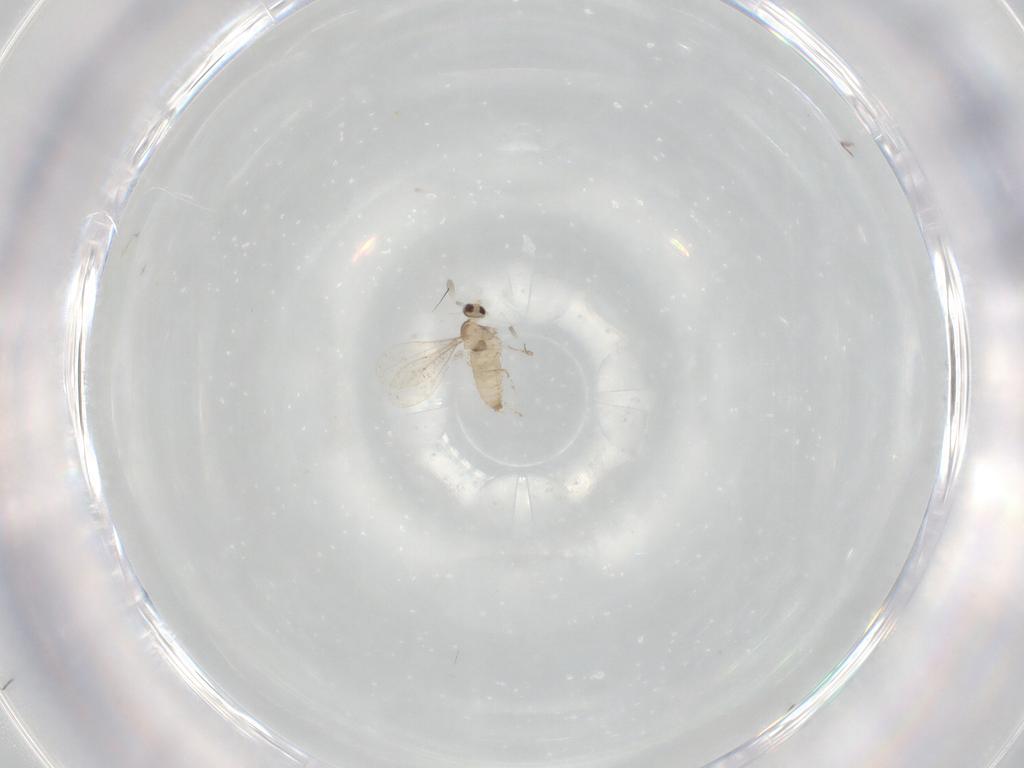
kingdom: Animalia
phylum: Arthropoda
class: Insecta
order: Diptera
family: Cecidomyiidae
